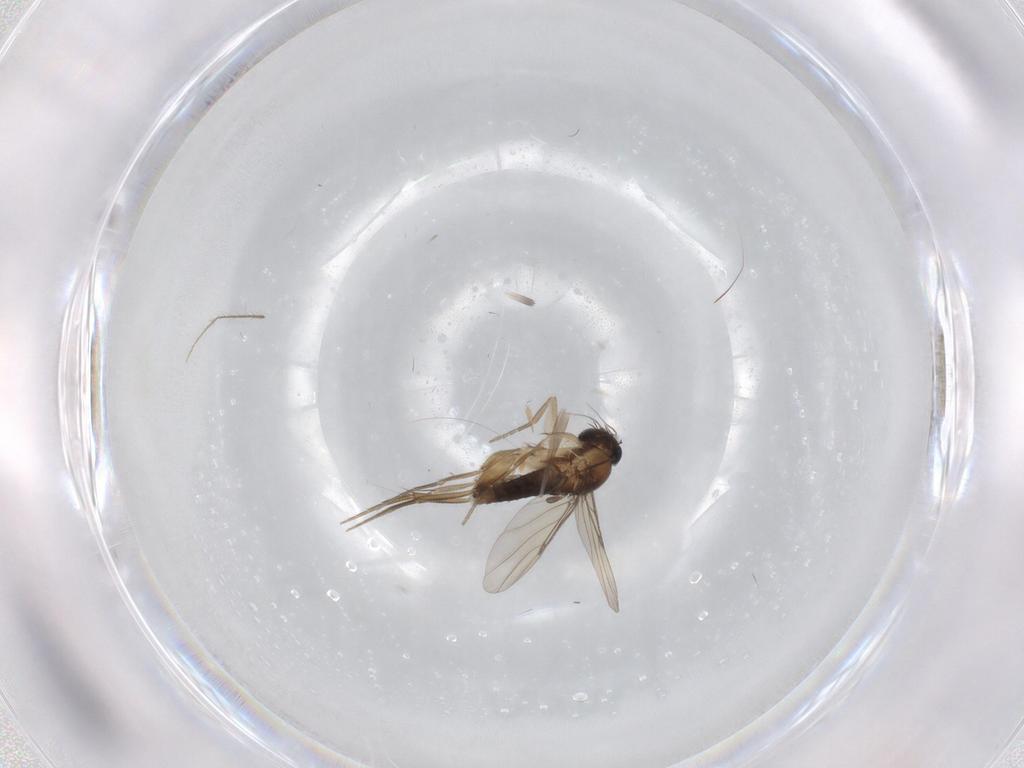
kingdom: Animalia
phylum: Arthropoda
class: Insecta
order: Diptera
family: Phoridae
